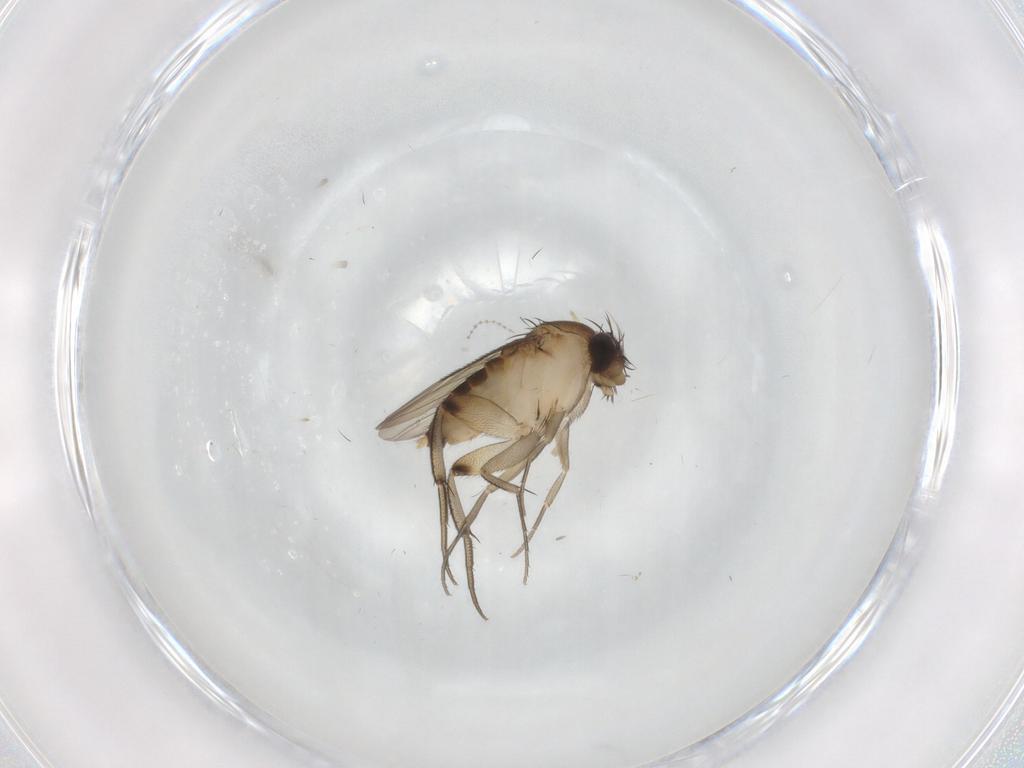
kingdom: Animalia
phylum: Arthropoda
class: Insecta
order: Diptera
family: Phoridae
